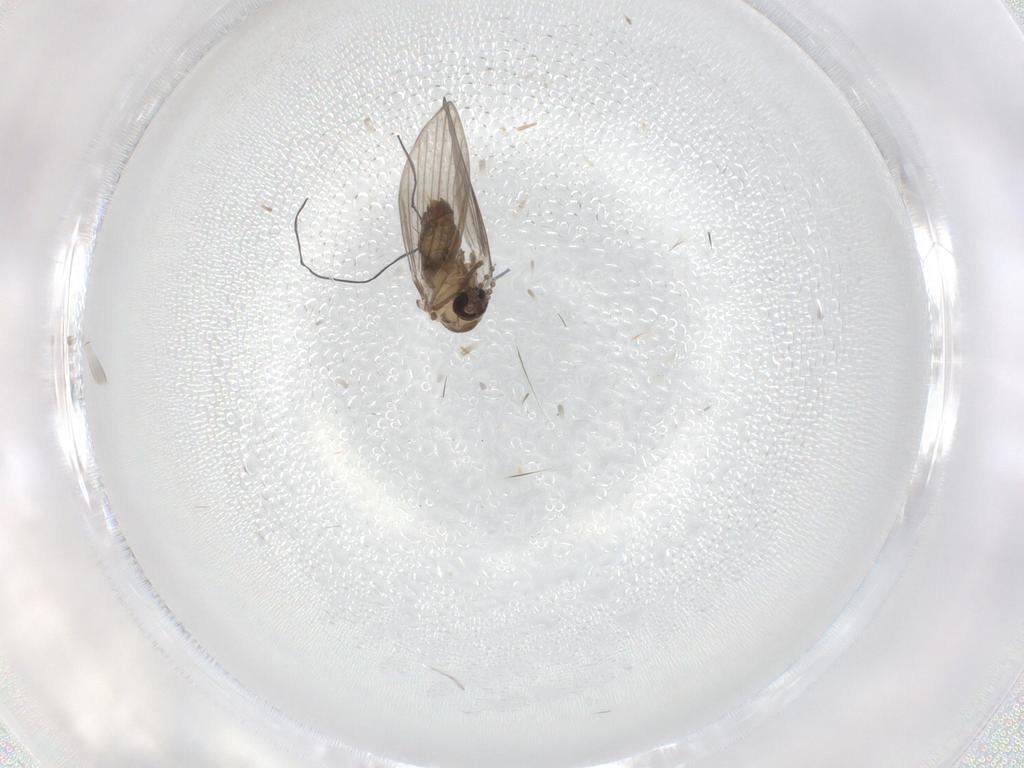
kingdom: Animalia
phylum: Arthropoda
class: Insecta
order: Diptera
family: Psychodidae
